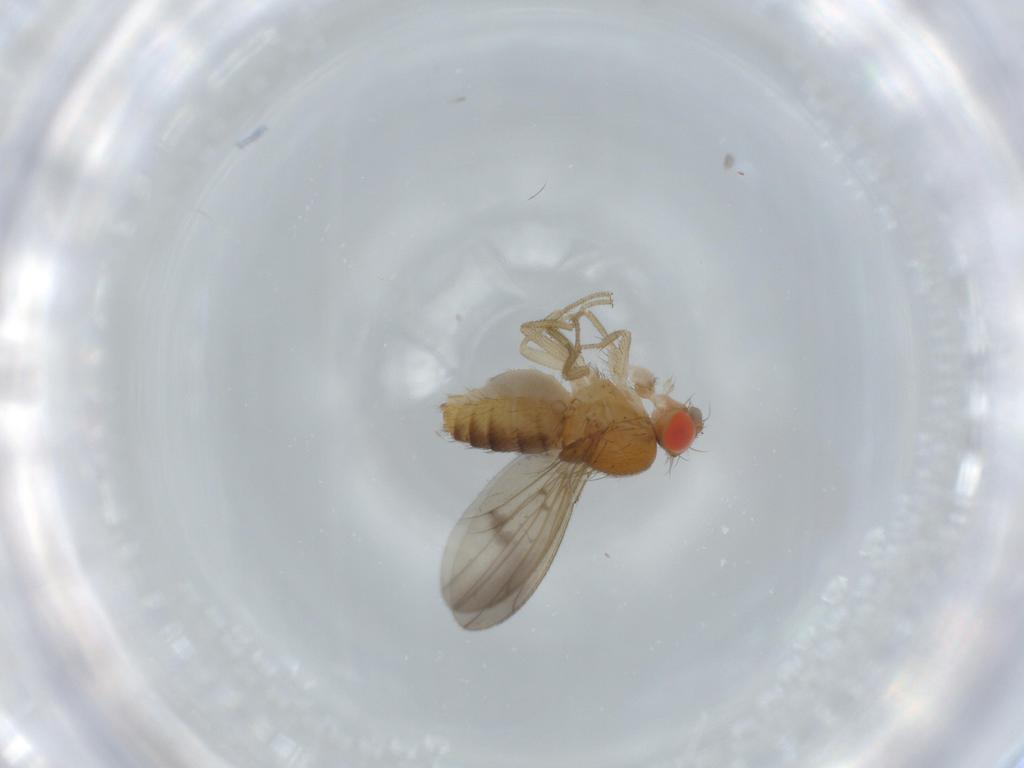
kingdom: Animalia
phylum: Arthropoda
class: Insecta
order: Diptera
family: Drosophilidae
